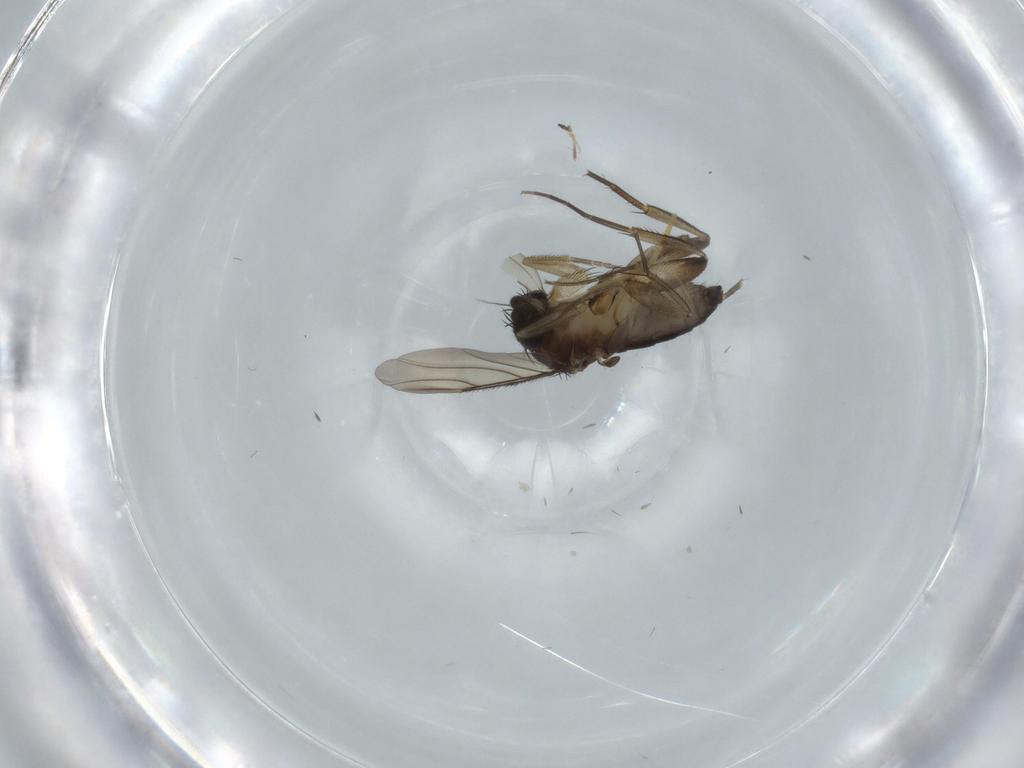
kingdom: Animalia
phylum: Arthropoda
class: Insecta
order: Diptera
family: Phoridae
